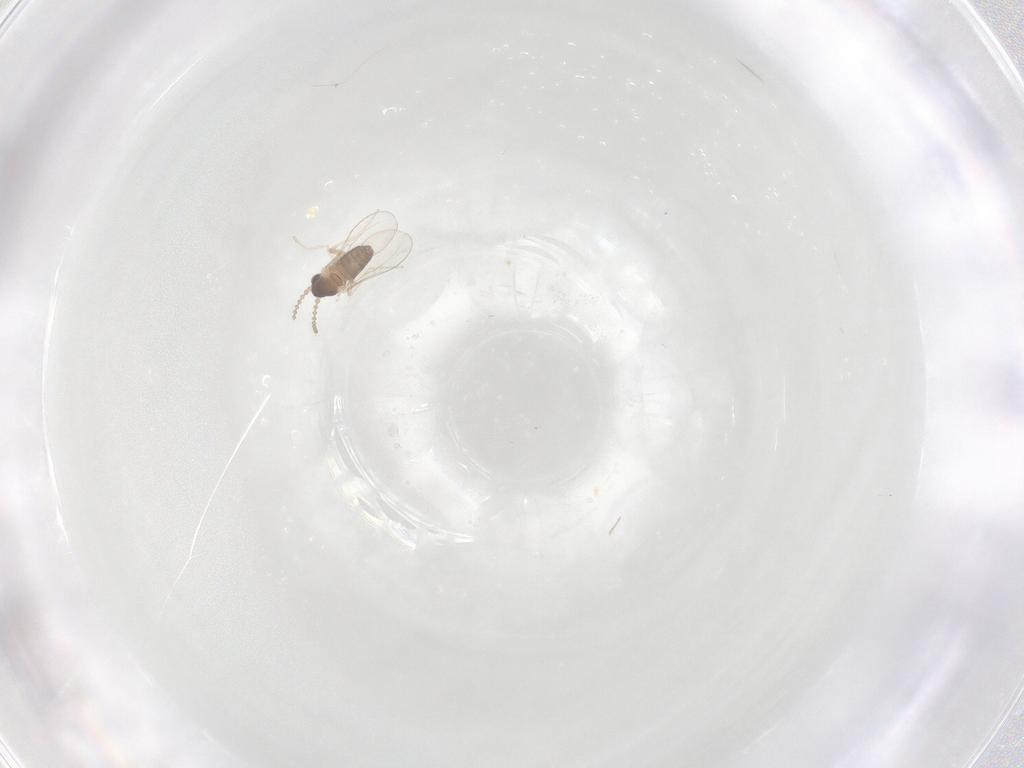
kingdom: Animalia
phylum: Arthropoda
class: Insecta
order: Diptera
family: Cecidomyiidae
